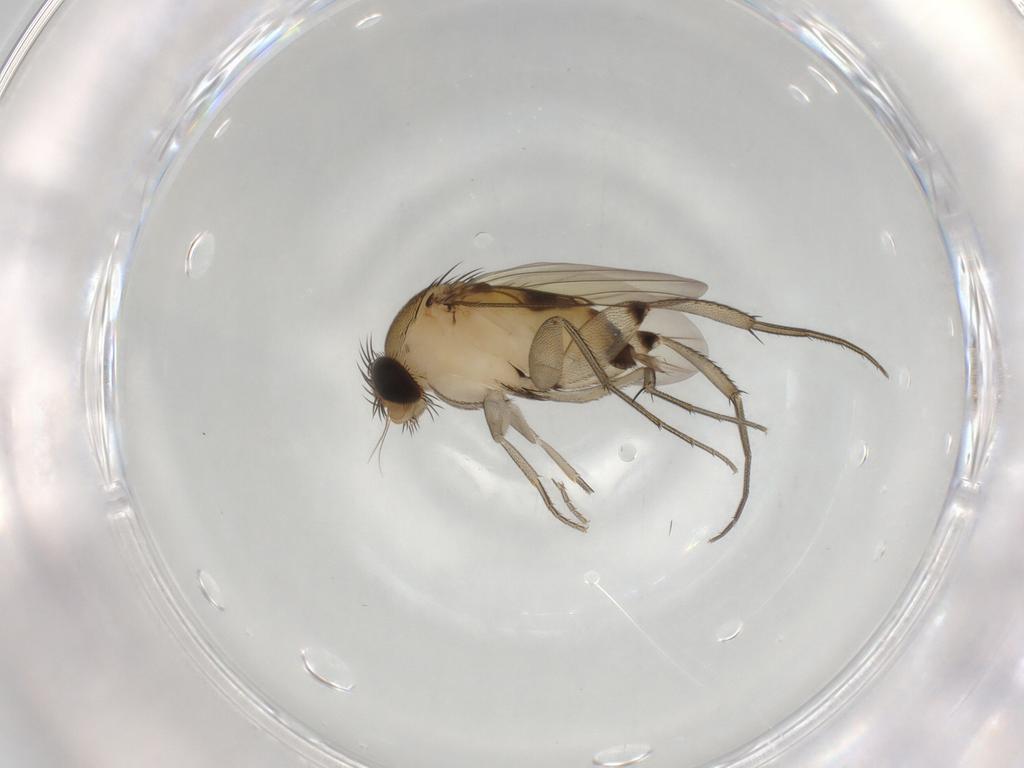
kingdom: Animalia
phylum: Arthropoda
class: Insecta
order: Diptera
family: Phoridae
